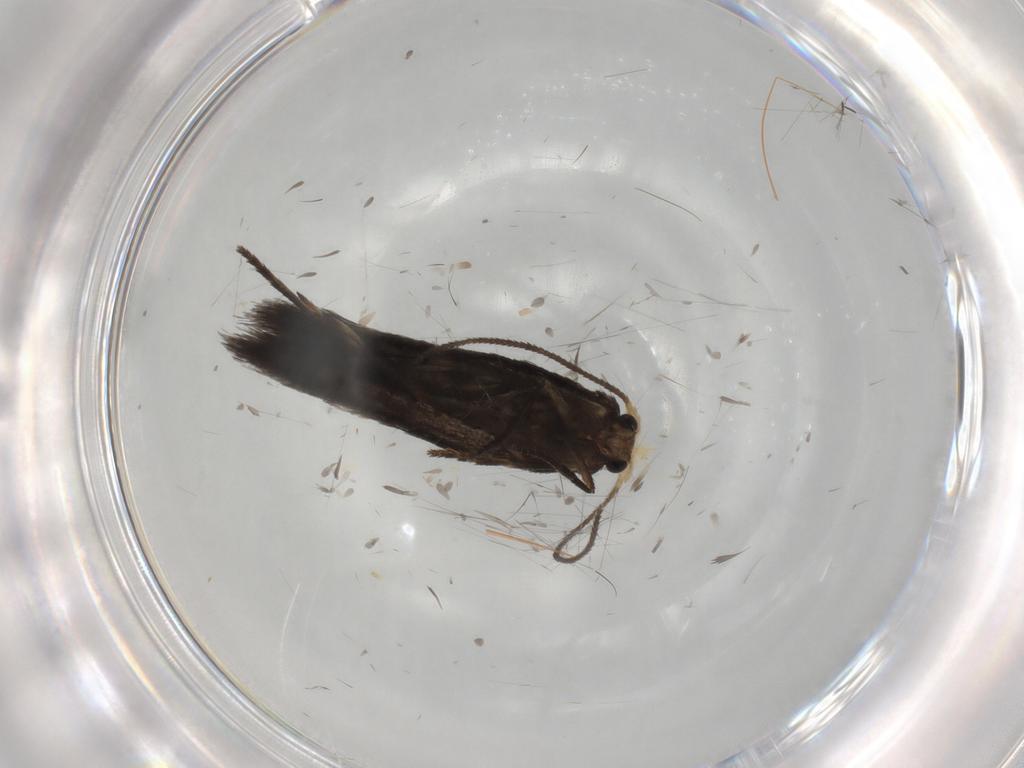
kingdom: Animalia
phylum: Arthropoda
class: Insecta
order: Lepidoptera
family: Nepticulidae
